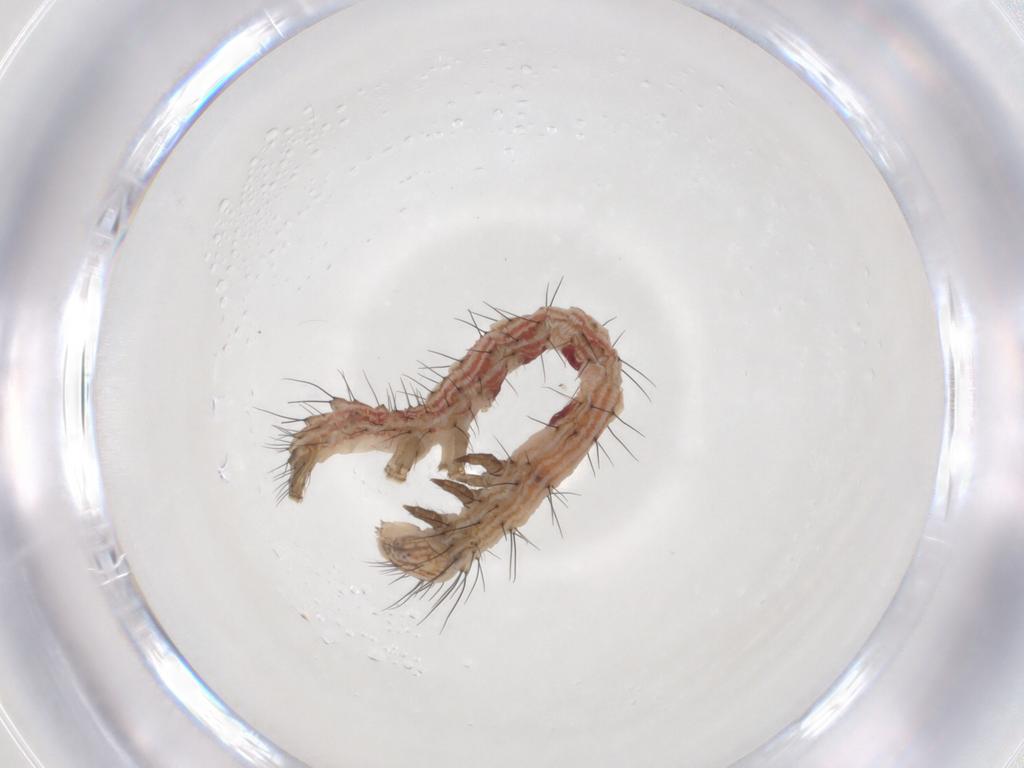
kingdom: Animalia
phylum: Arthropoda
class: Insecta
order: Lepidoptera
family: Erebidae
